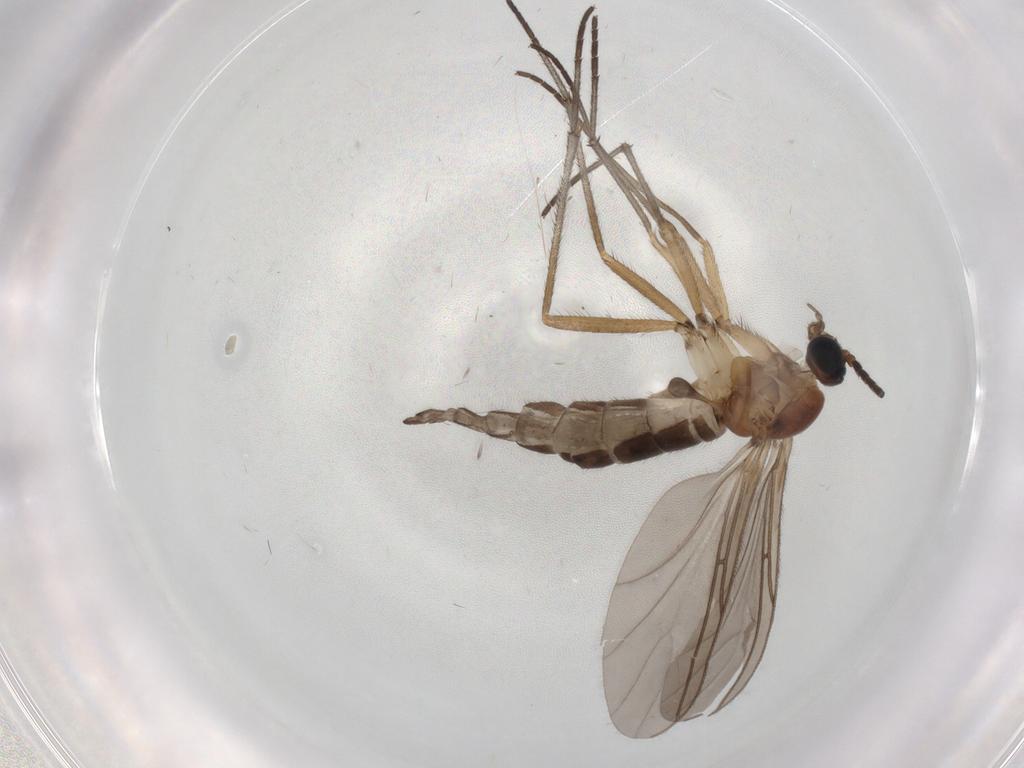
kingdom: Animalia
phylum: Arthropoda
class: Insecta
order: Diptera
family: Sciaridae
